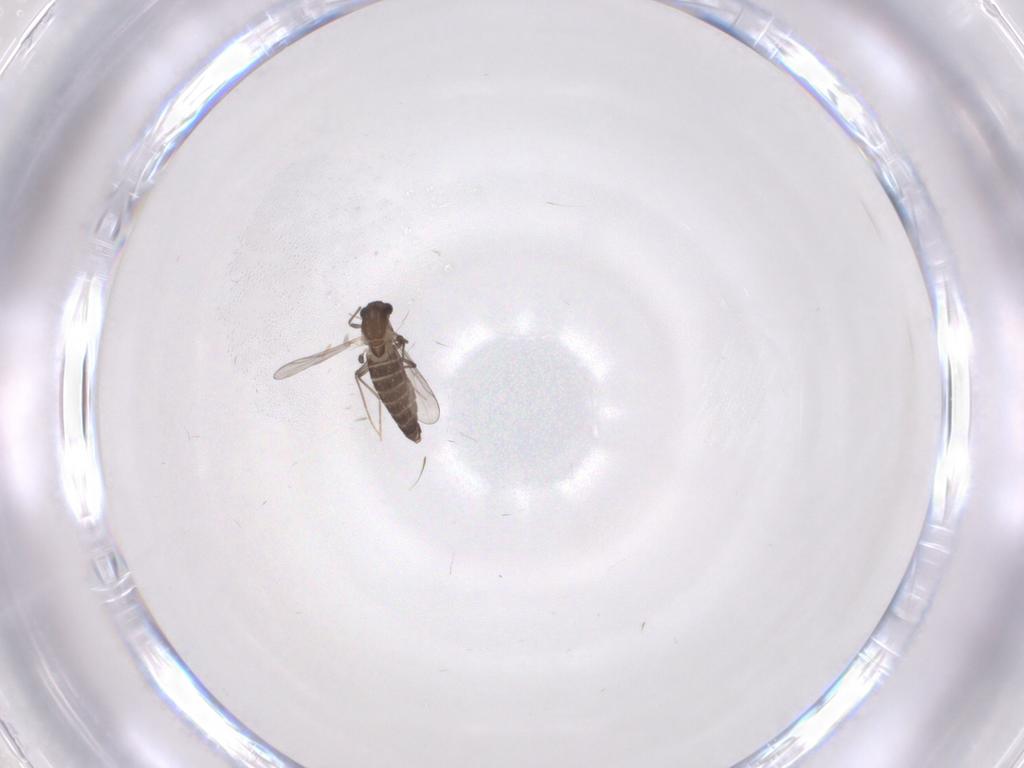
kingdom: Animalia
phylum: Arthropoda
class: Insecta
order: Diptera
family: Chironomidae
